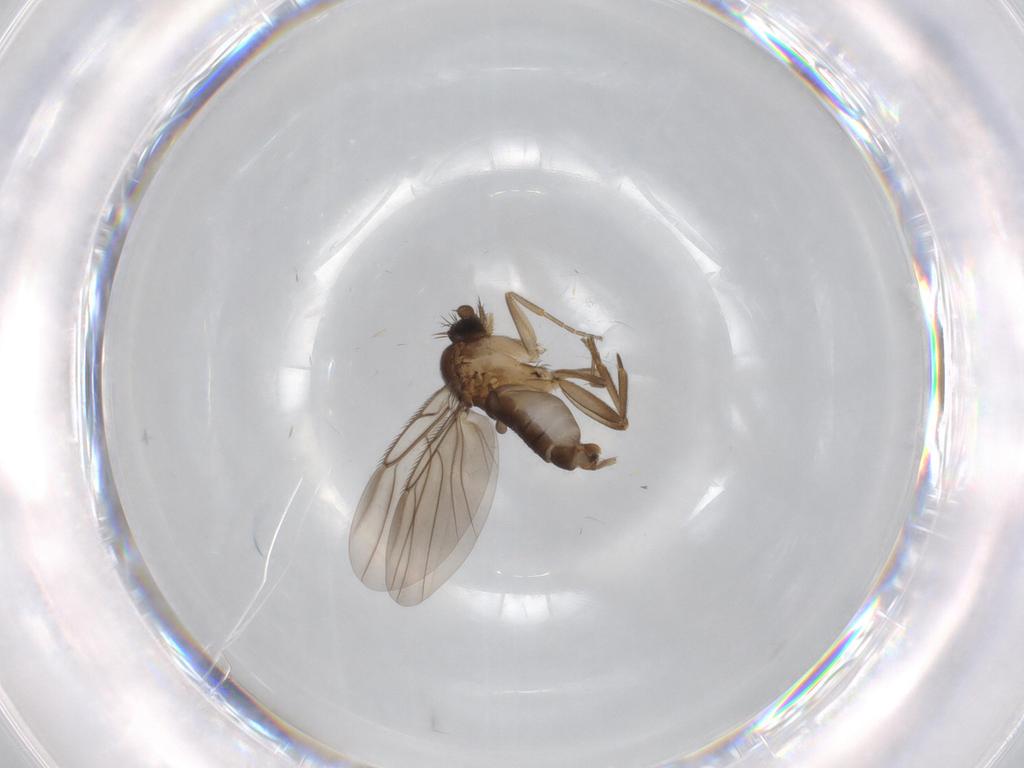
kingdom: Animalia
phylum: Arthropoda
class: Insecta
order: Diptera
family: Phoridae
